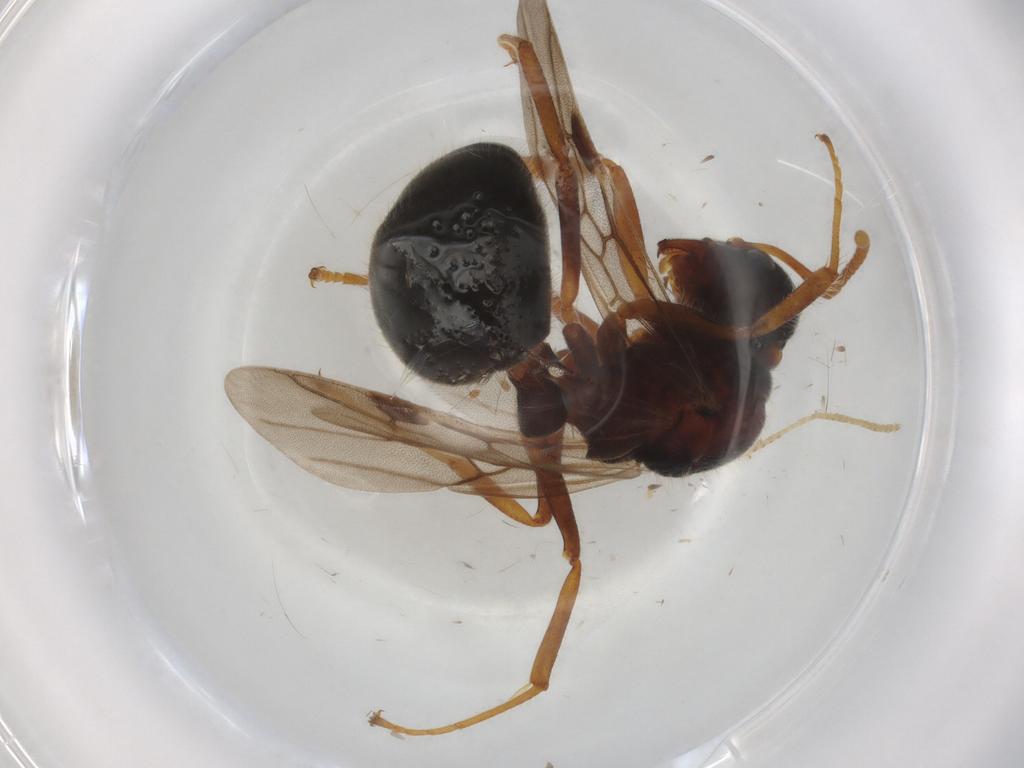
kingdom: Animalia
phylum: Arthropoda
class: Insecta
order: Hymenoptera
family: Formicidae
